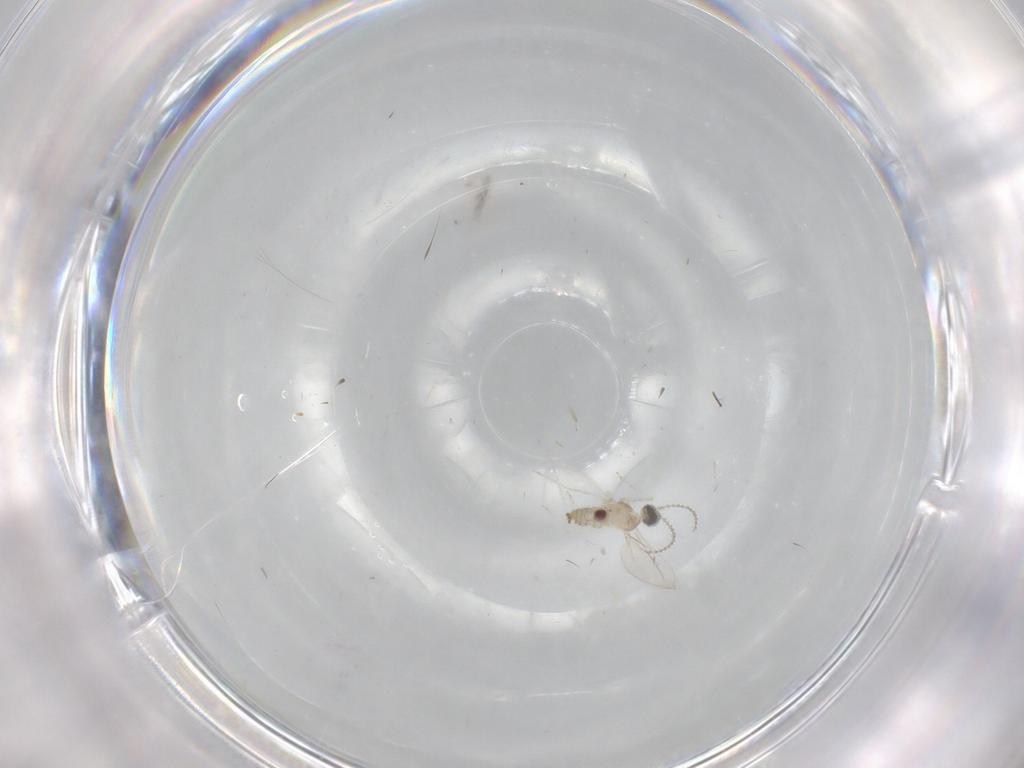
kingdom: Animalia
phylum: Arthropoda
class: Insecta
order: Diptera
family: Cecidomyiidae
